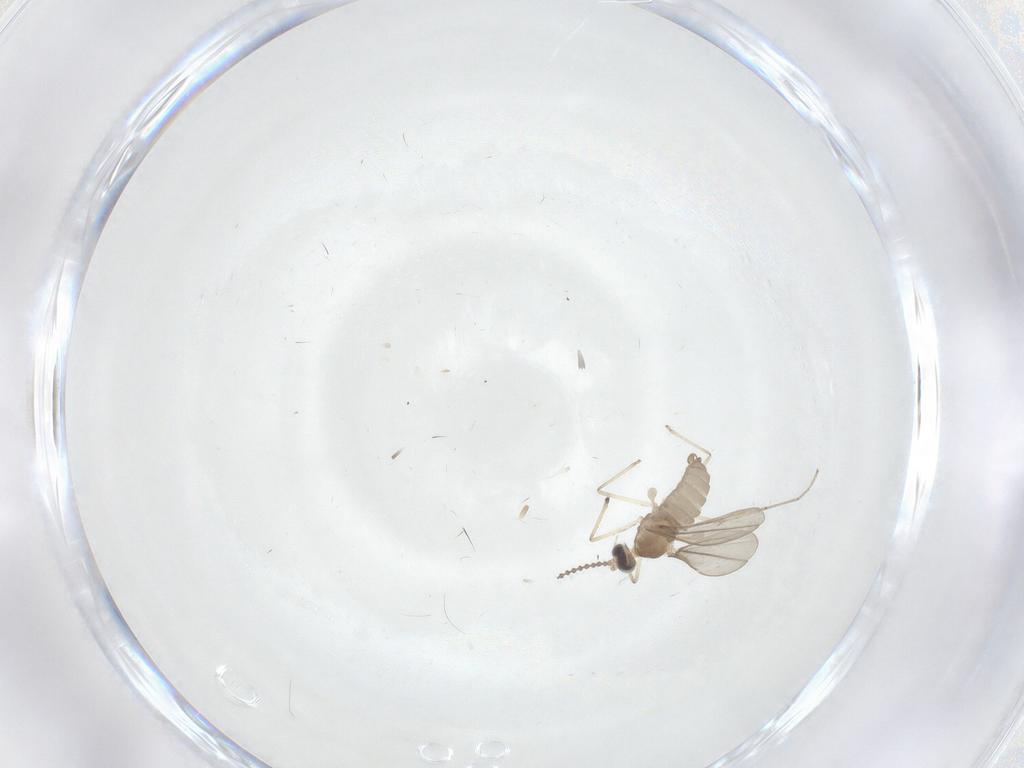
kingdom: Animalia
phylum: Arthropoda
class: Insecta
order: Diptera
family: Cecidomyiidae
